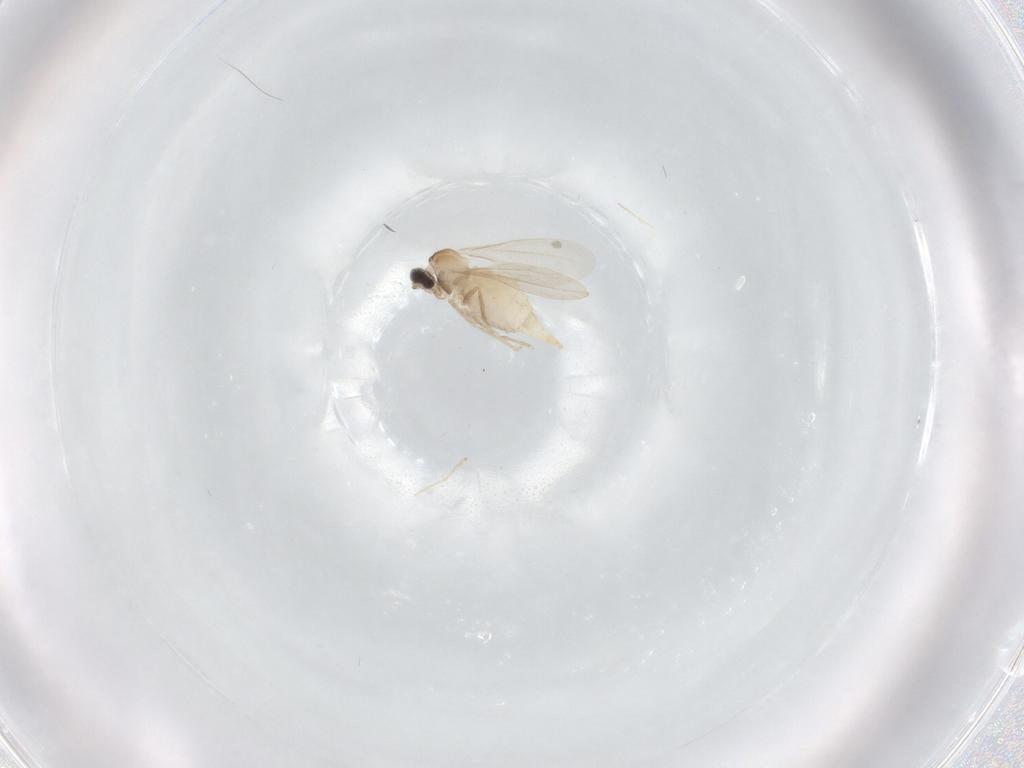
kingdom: Animalia
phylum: Arthropoda
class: Insecta
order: Diptera
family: Cecidomyiidae
